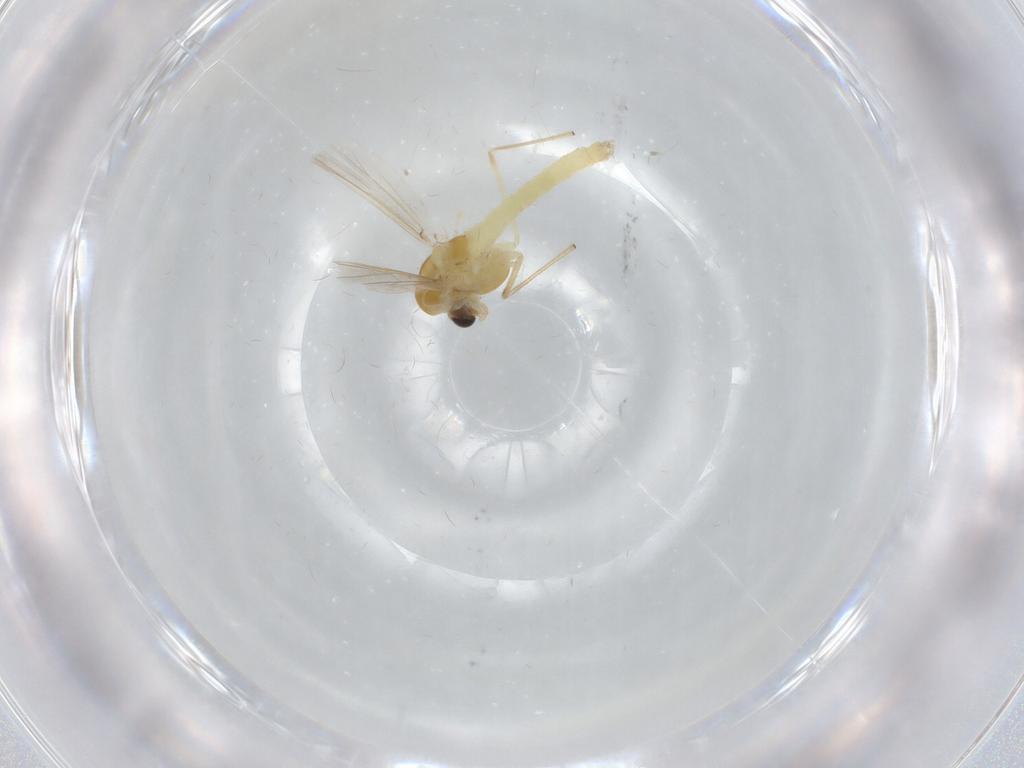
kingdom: Animalia
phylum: Arthropoda
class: Insecta
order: Diptera
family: Chironomidae
